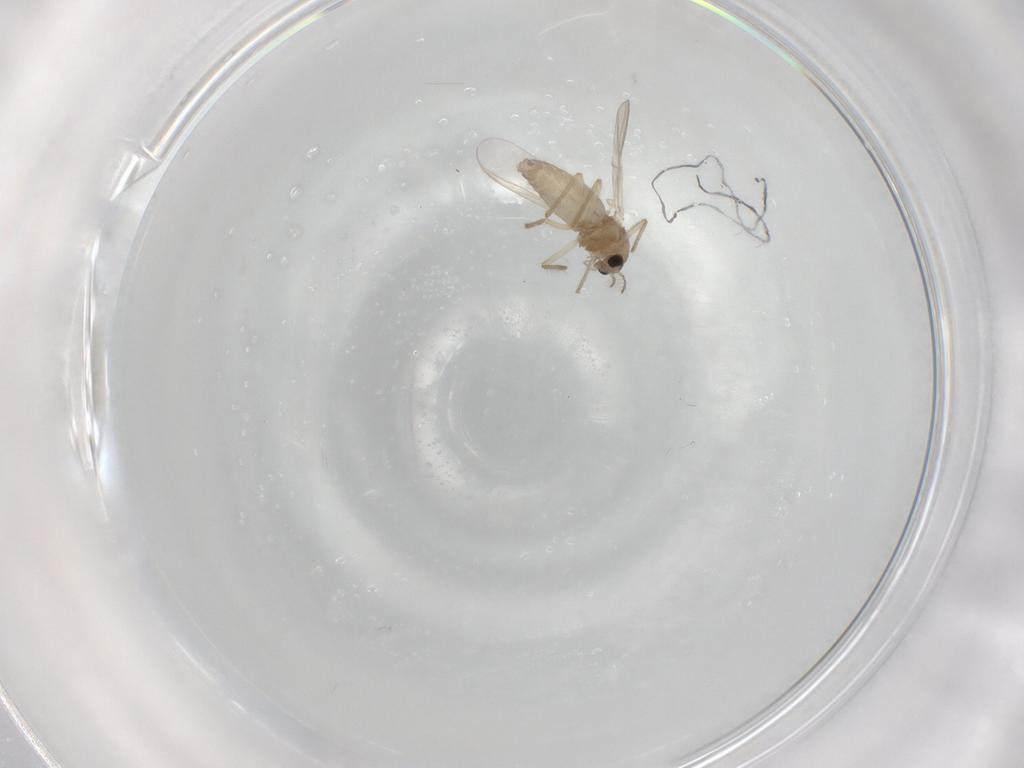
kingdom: Animalia
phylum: Arthropoda
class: Insecta
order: Diptera
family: Chironomidae
